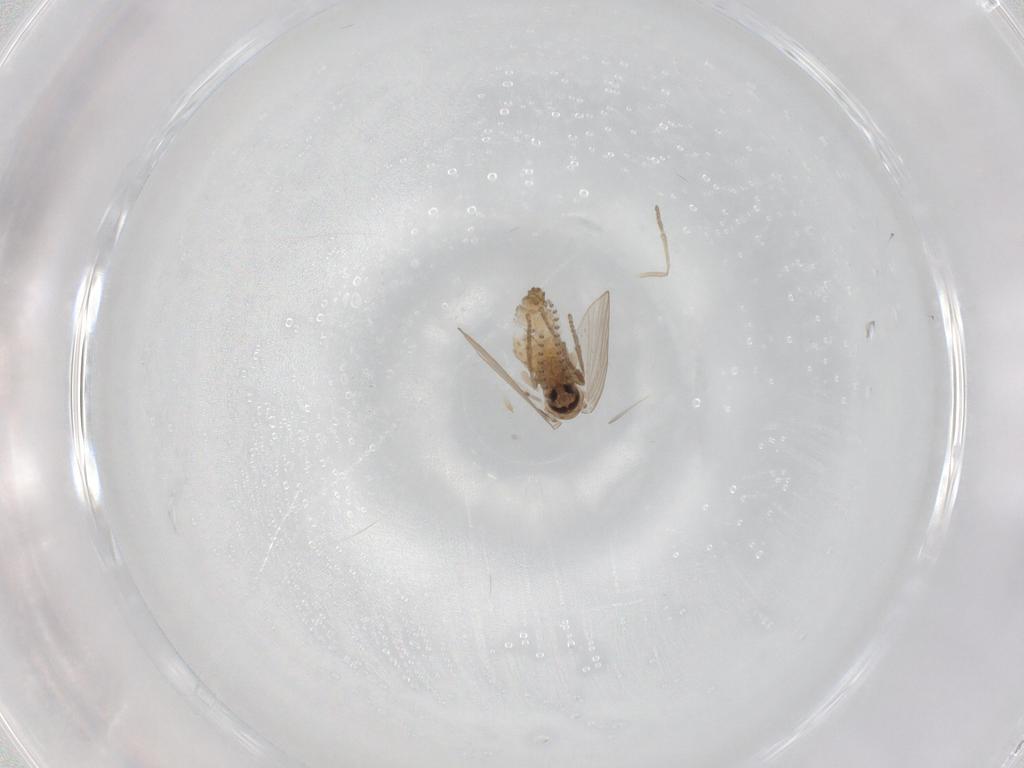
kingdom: Animalia
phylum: Arthropoda
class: Insecta
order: Diptera
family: Psychodidae
